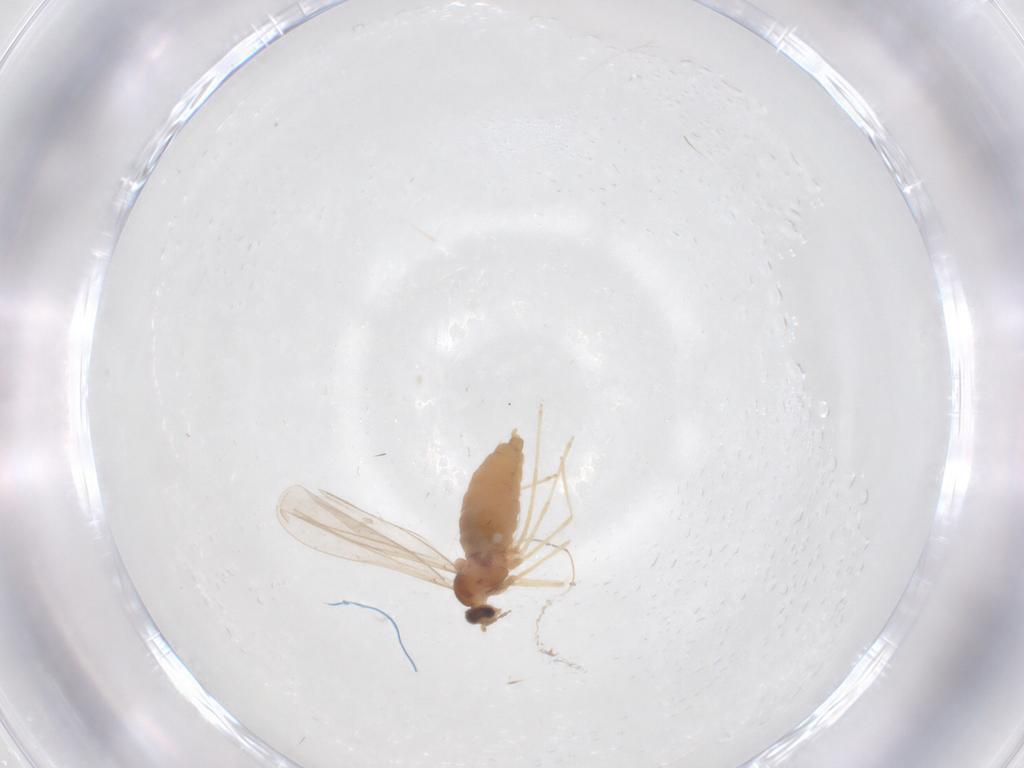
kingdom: Animalia
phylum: Arthropoda
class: Insecta
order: Diptera
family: Cecidomyiidae
